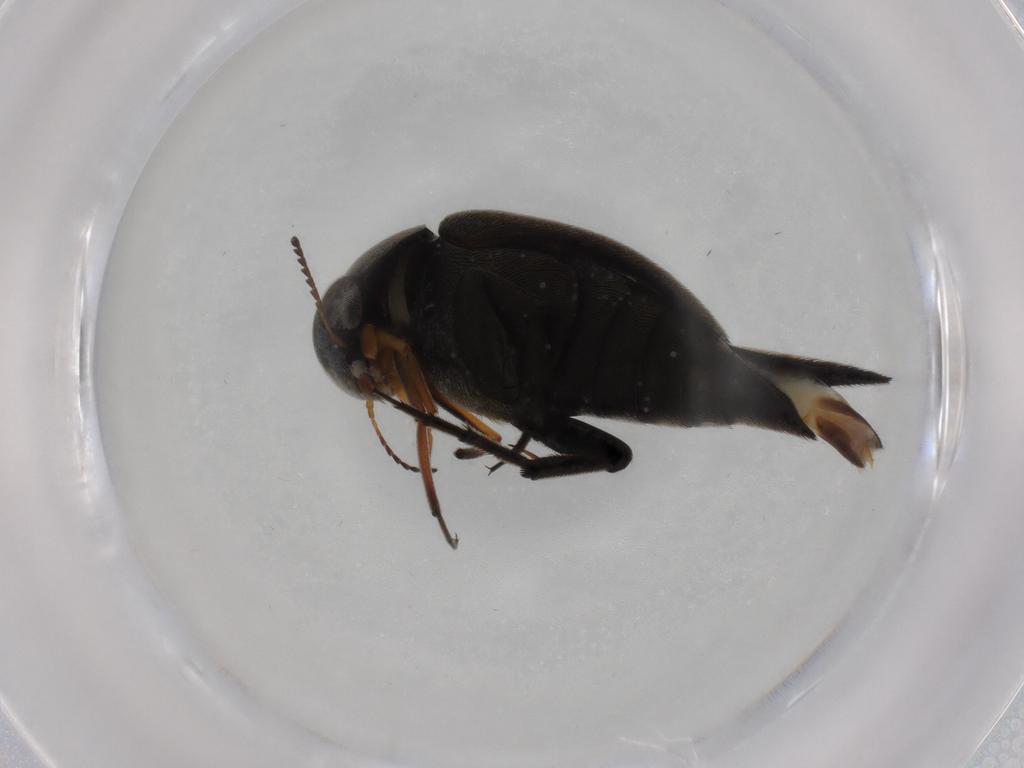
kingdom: Animalia
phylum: Arthropoda
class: Insecta
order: Coleoptera
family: Mordellidae
